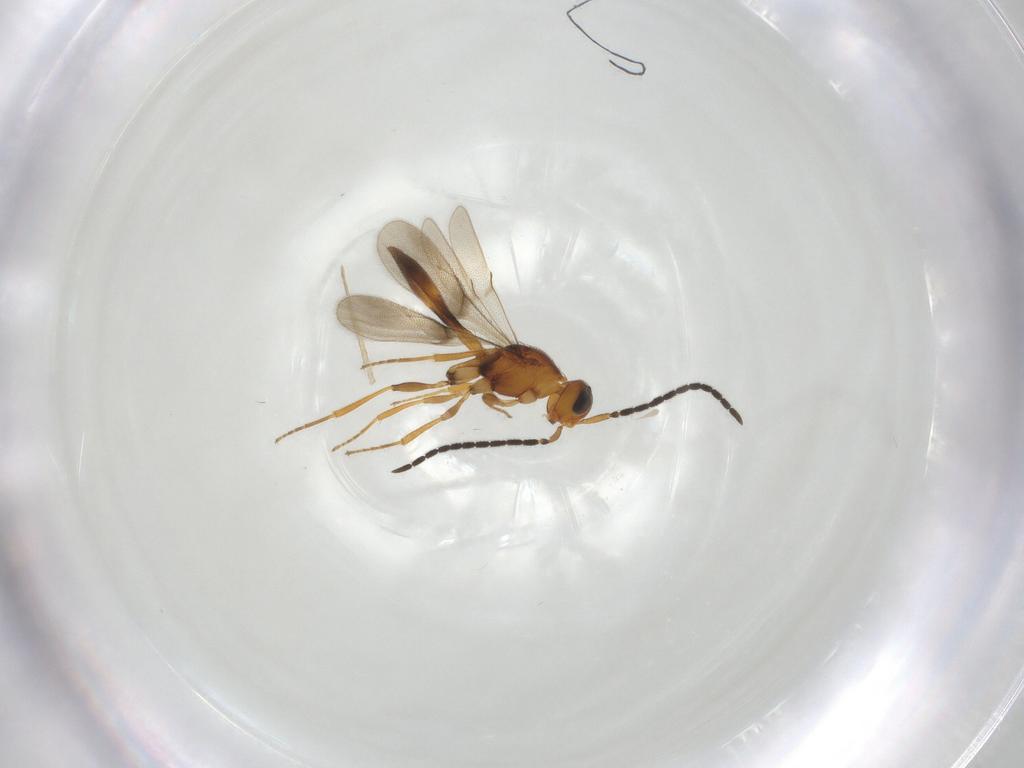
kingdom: Animalia
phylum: Arthropoda
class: Insecta
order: Hymenoptera
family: Scelionidae
